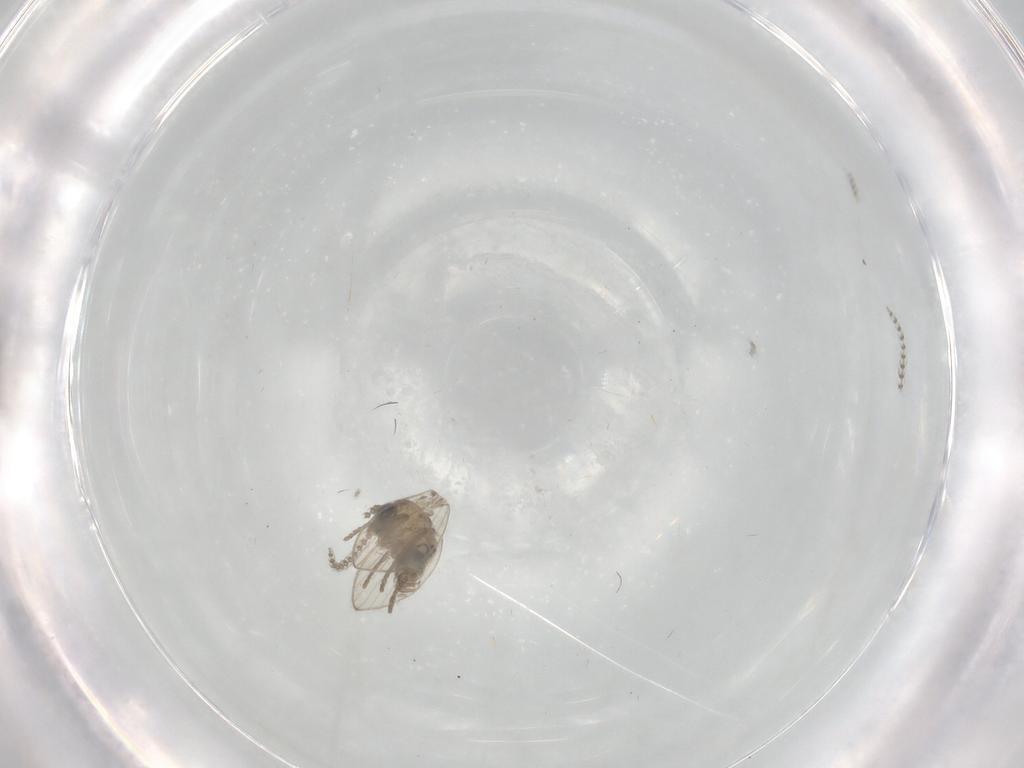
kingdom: Animalia
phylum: Arthropoda
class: Insecta
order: Diptera
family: Psychodidae
